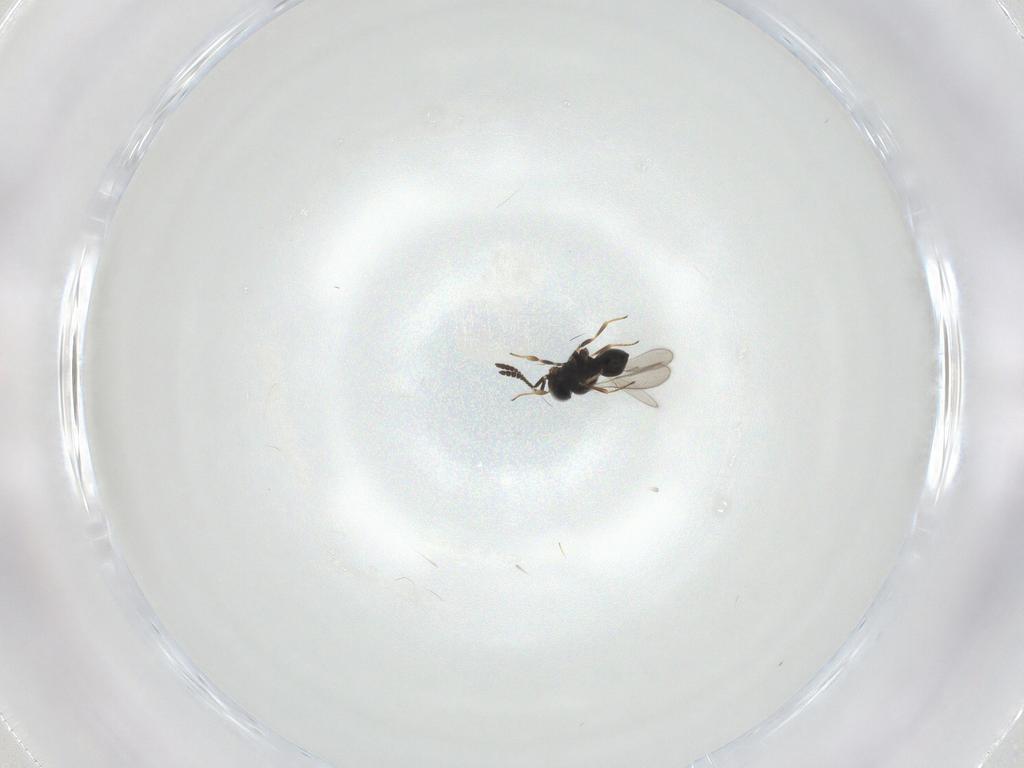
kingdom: Animalia
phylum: Arthropoda
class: Insecta
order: Hymenoptera
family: Scelionidae
